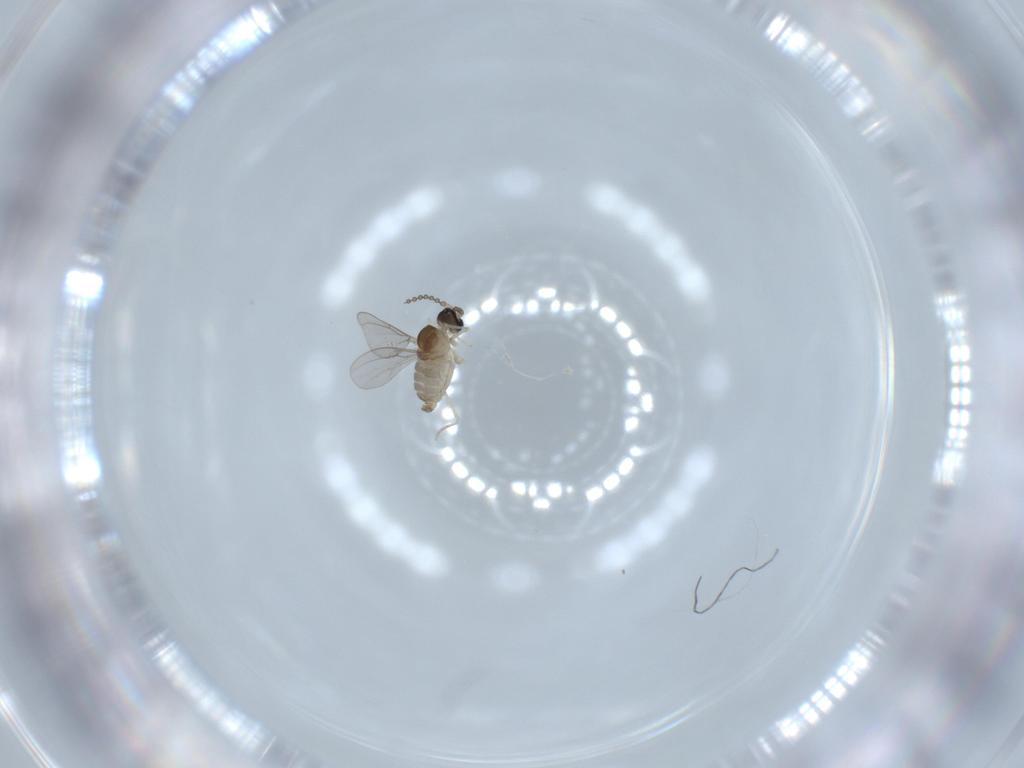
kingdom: Animalia
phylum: Arthropoda
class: Insecta
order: Diptera
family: Cecidomyiidae
